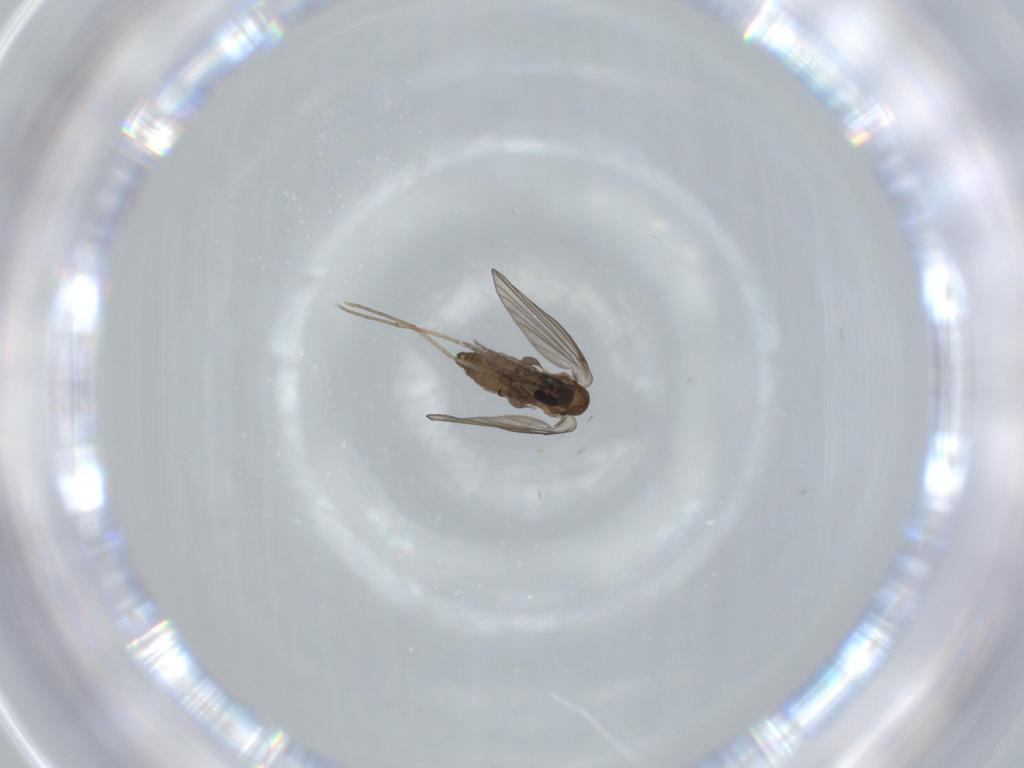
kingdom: Animalia
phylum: Arthropoda
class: Insecta
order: Diptera
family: Psychodidae
